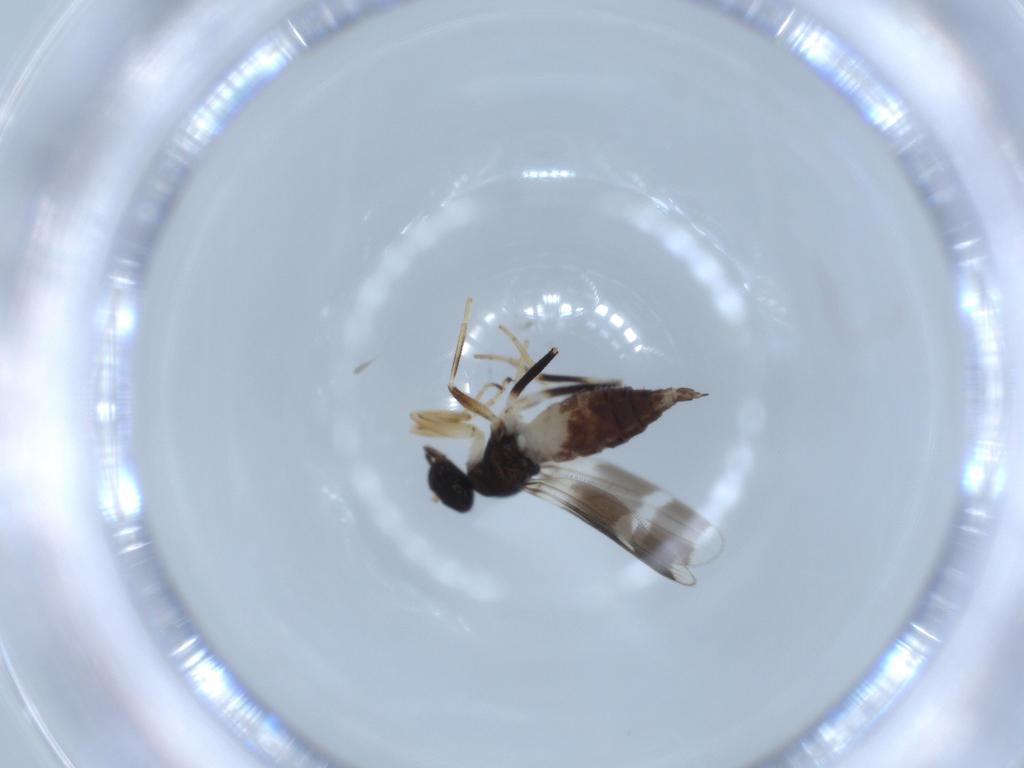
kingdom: Animalia
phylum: Arthropoda
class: Insecta
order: Diptera
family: Hybotidae
